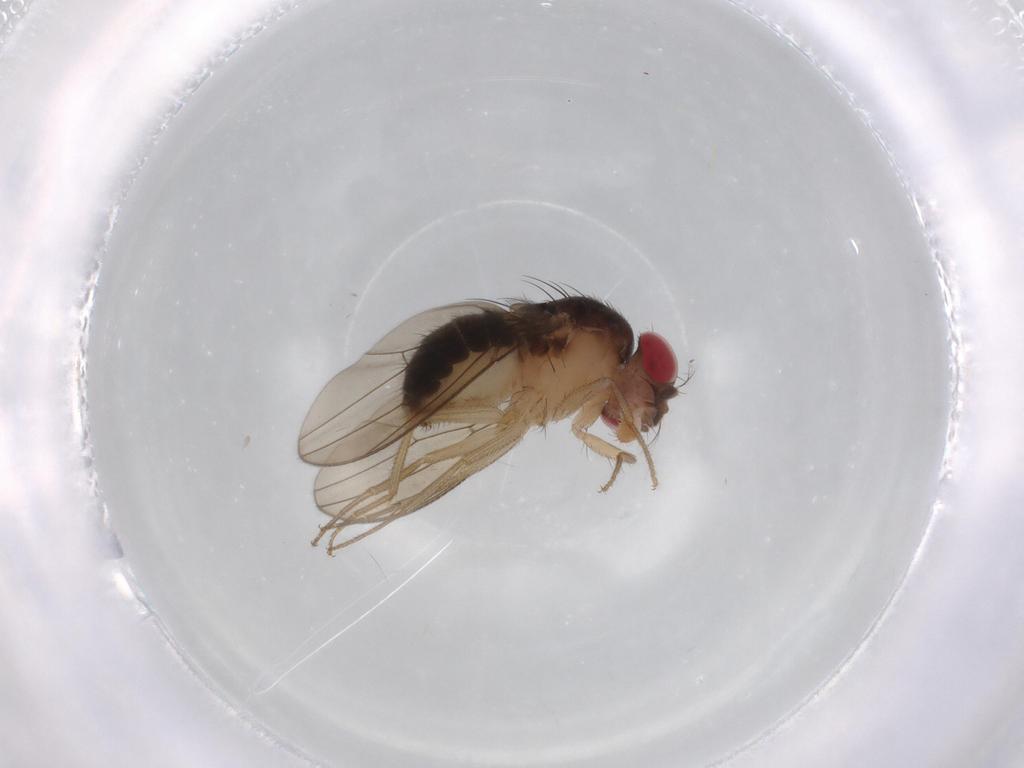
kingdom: Animalia
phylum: Arthropoda
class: Insecta
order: Diptera
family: Drosophilidae
